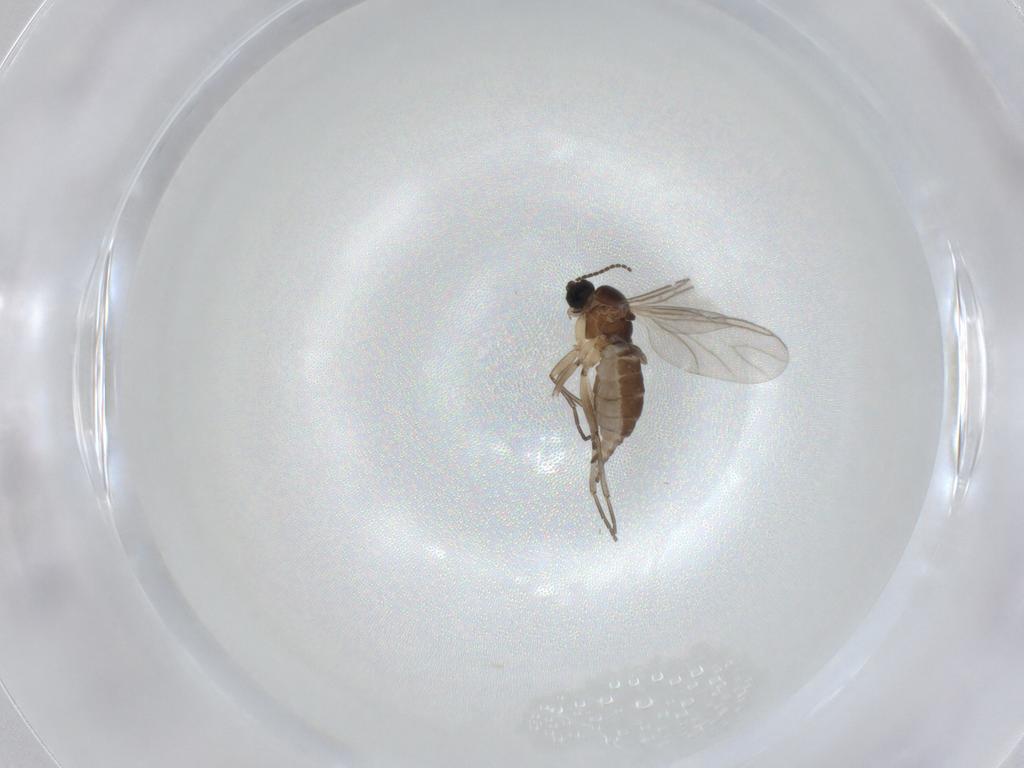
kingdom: Animalia
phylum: Arthropoda
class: Insecta
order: Diptera
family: Sciaridae
